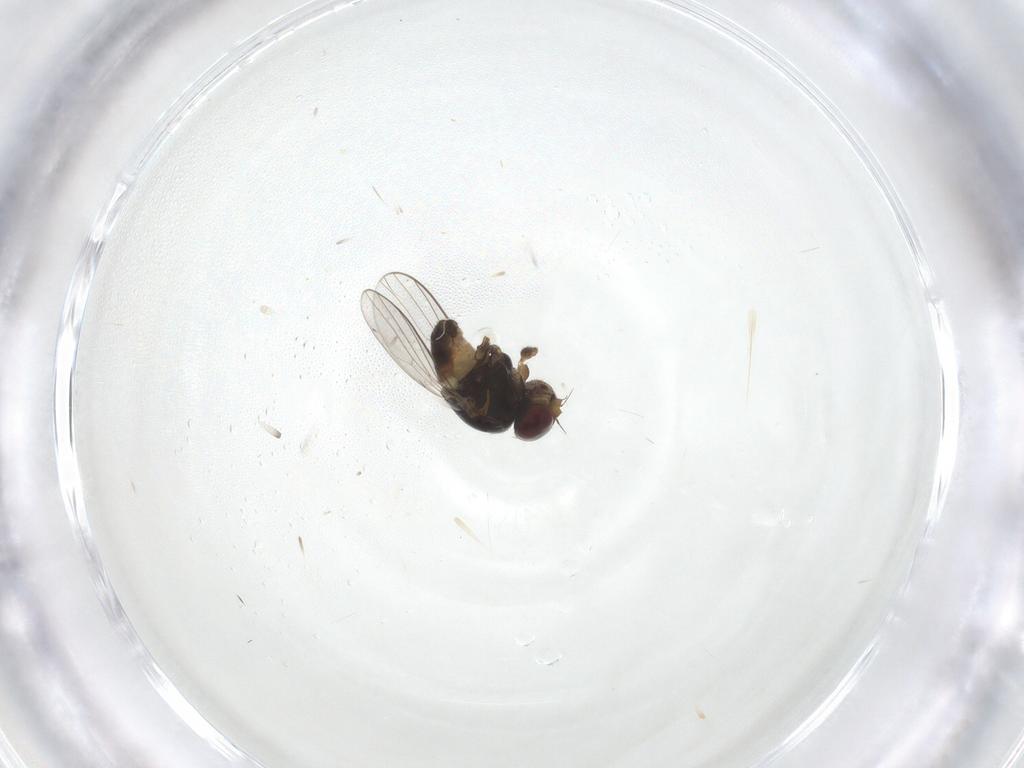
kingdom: Animalia
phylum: Arthropoda
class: Insecta
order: Diptera
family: Chloropidae
